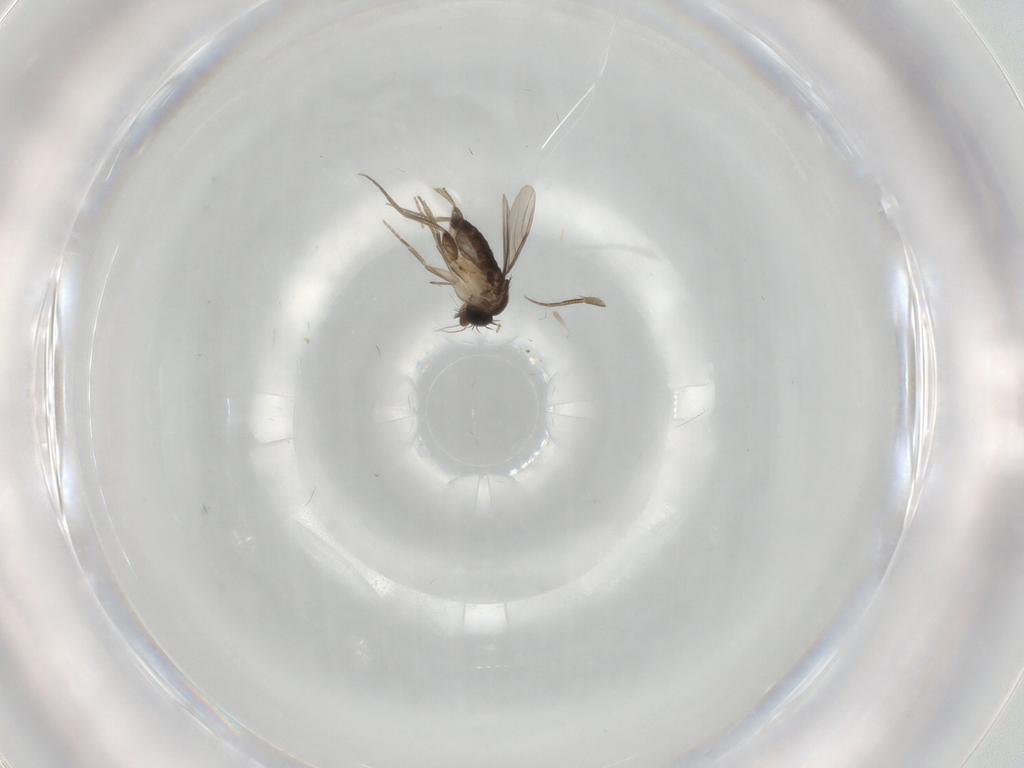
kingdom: Animalia
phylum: Arthropoda
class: Insecta
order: Diptera
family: Phoridae
